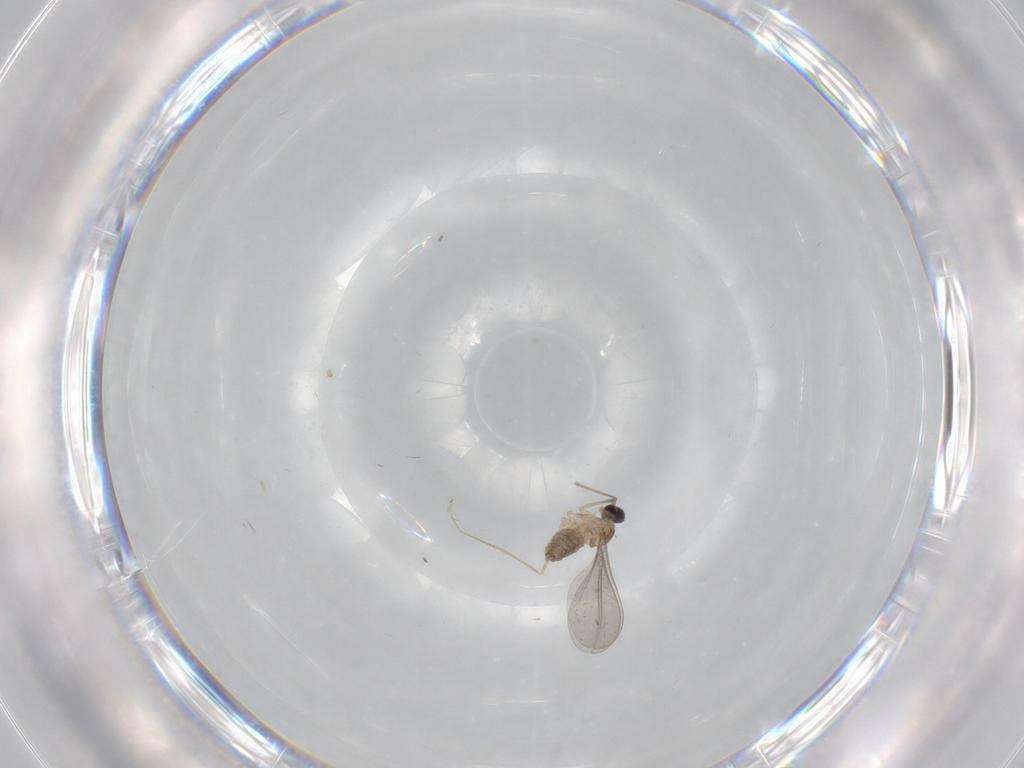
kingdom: Animalia
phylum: Arthropoda
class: Insecta
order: Diptera
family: Cecidomyiidae
